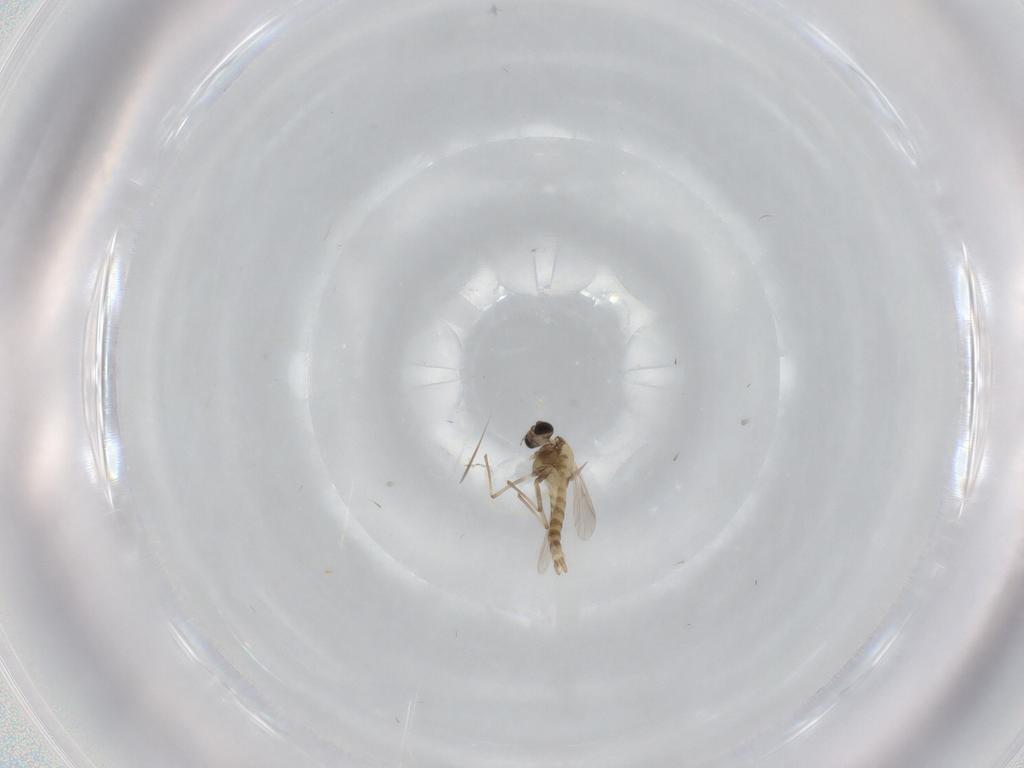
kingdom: Animalia
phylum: Arthropoda
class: Insecta
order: Diptera
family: Chironomidae
